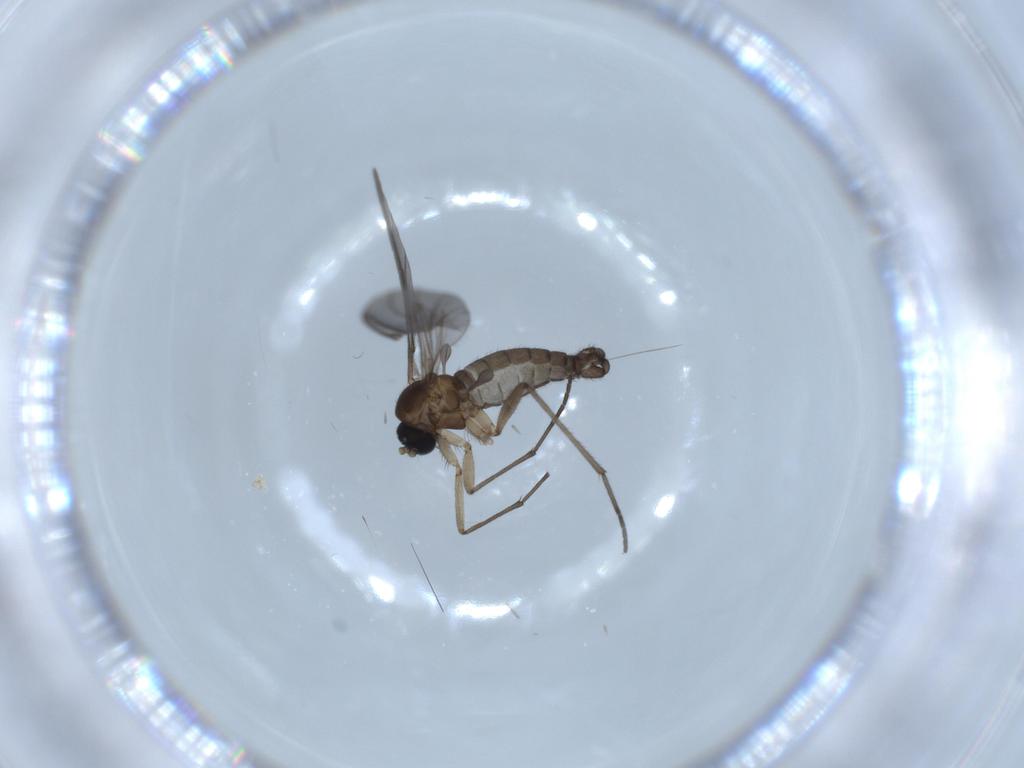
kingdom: Animalia
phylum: Arthropoda
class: Insecta
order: Diptera
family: Sciaridae
